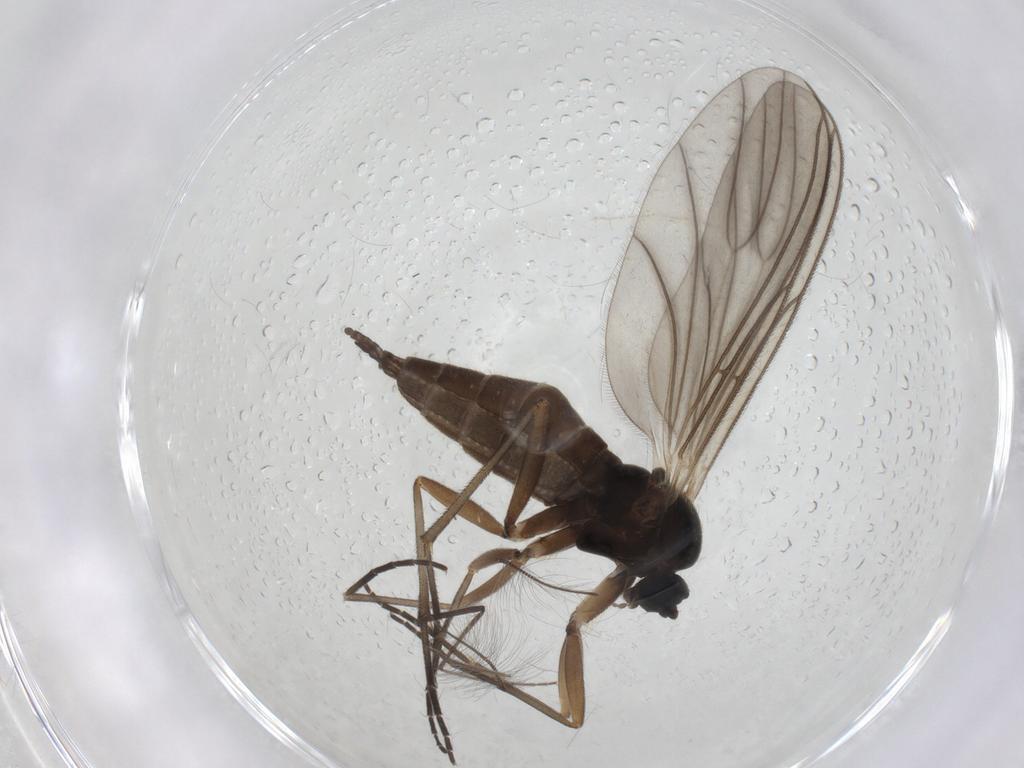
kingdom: Animalia
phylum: Arthropoda
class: Insecta
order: Diptera
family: Sciaridae
